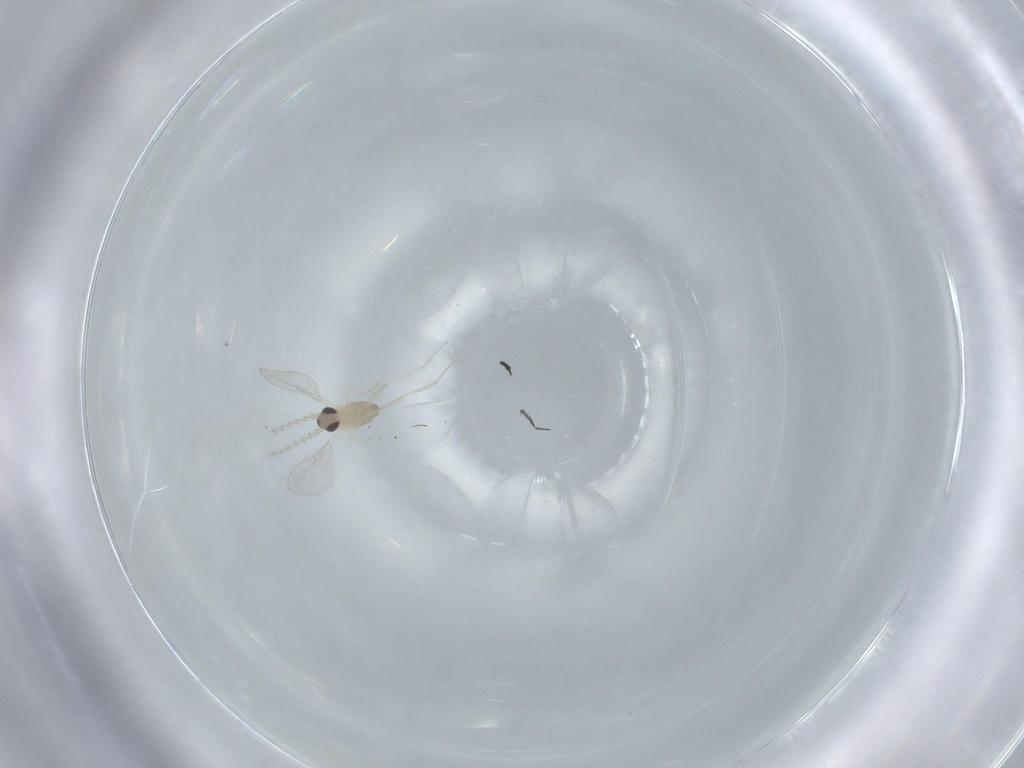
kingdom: Animalia
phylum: Arthropoda
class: Insecta
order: Diptera
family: Cecidomyiidae
